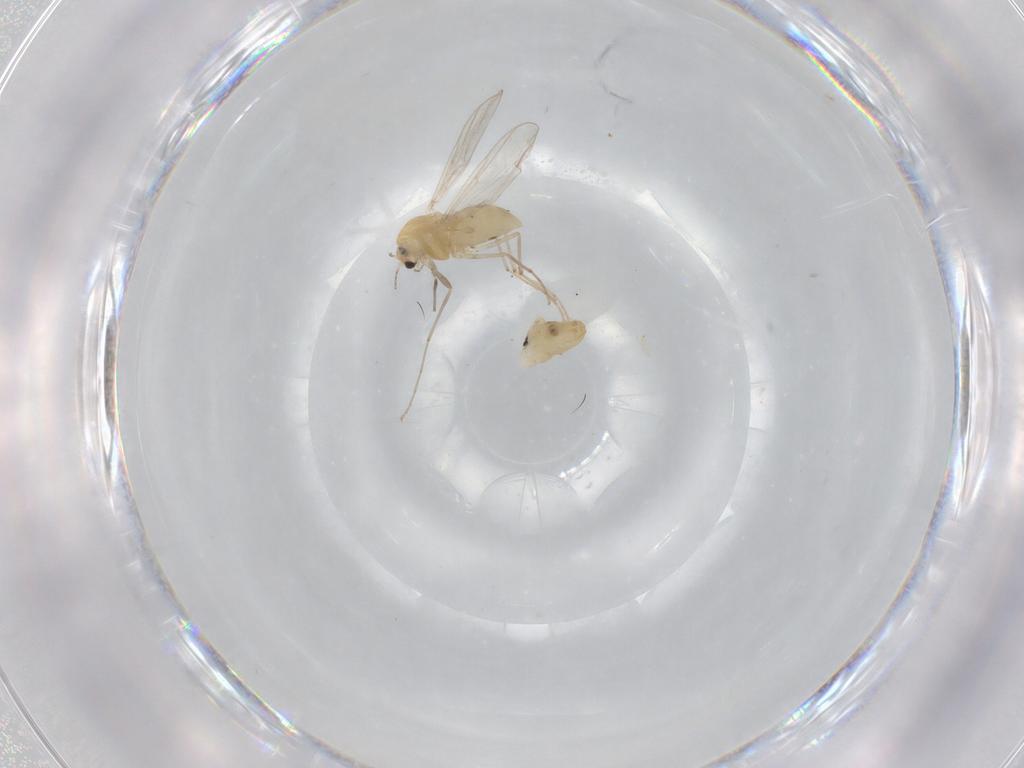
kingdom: Animalia
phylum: Arthropoda
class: Insecta
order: Diptera
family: Chironomidae
